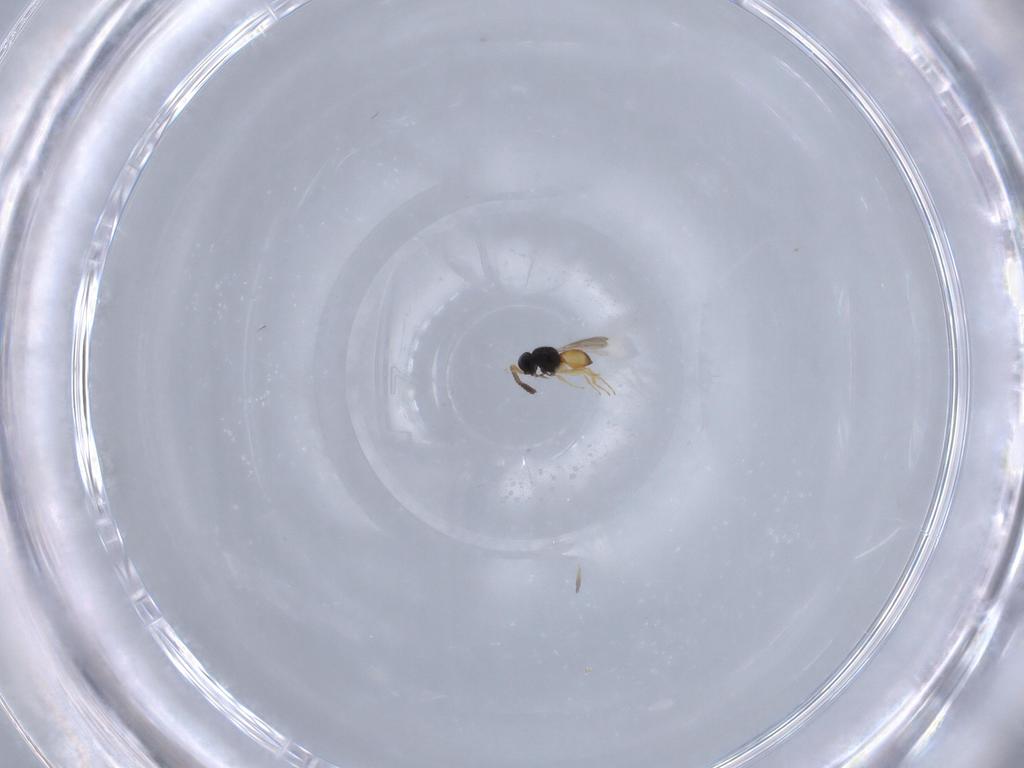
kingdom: Animalia
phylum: Arthropoda
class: Insecta
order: Hymenoptera
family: Scelionidae
